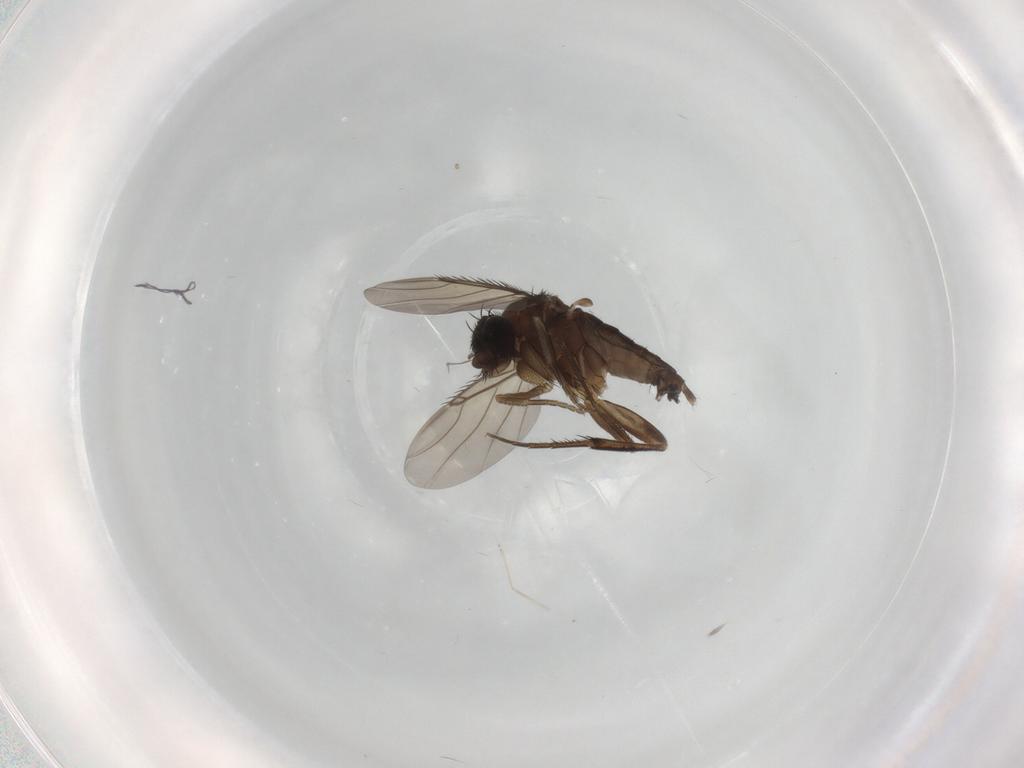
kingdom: Animalia
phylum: Arthropoda
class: Insecta
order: Diptera
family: Phoridae
